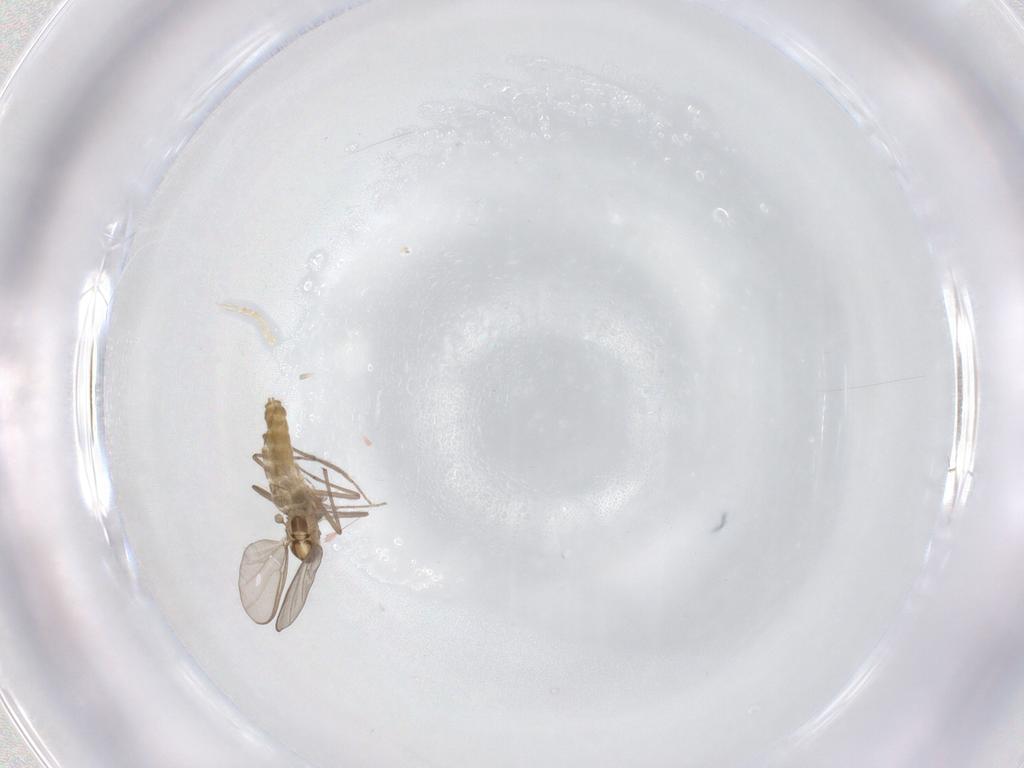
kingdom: Animalia
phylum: Arthropoda
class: Insecta
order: Diptera
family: Chironomidae
